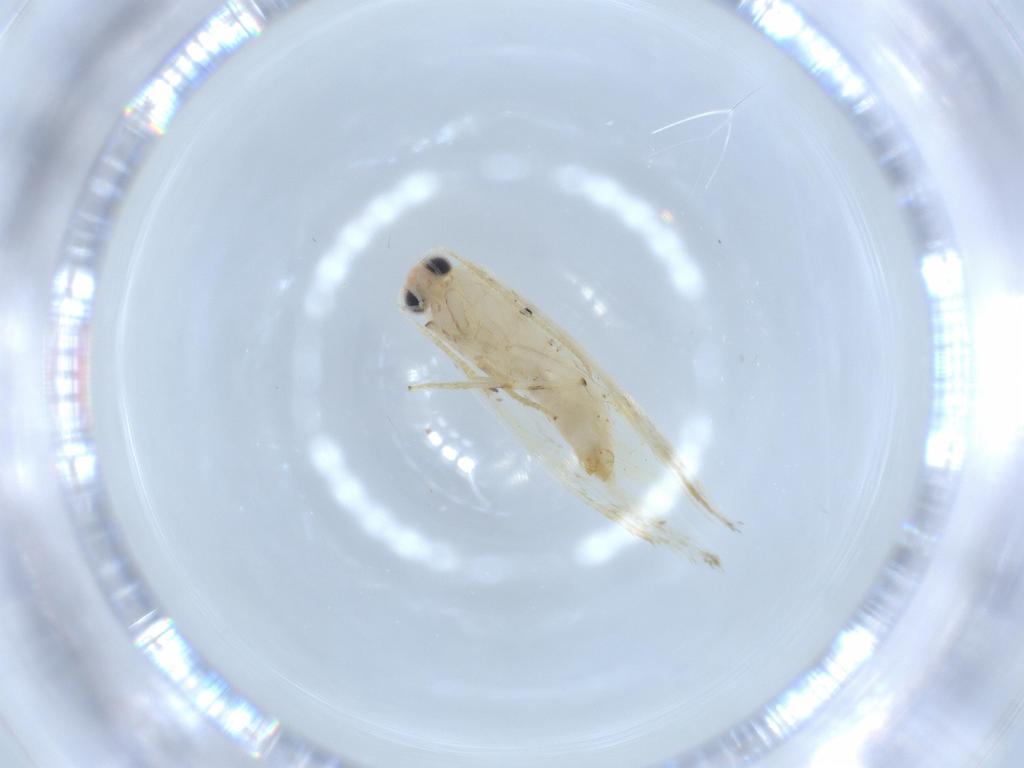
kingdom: Animalia
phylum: Arthropoda
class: Insecta
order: Lepidoptera
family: Tineidae
